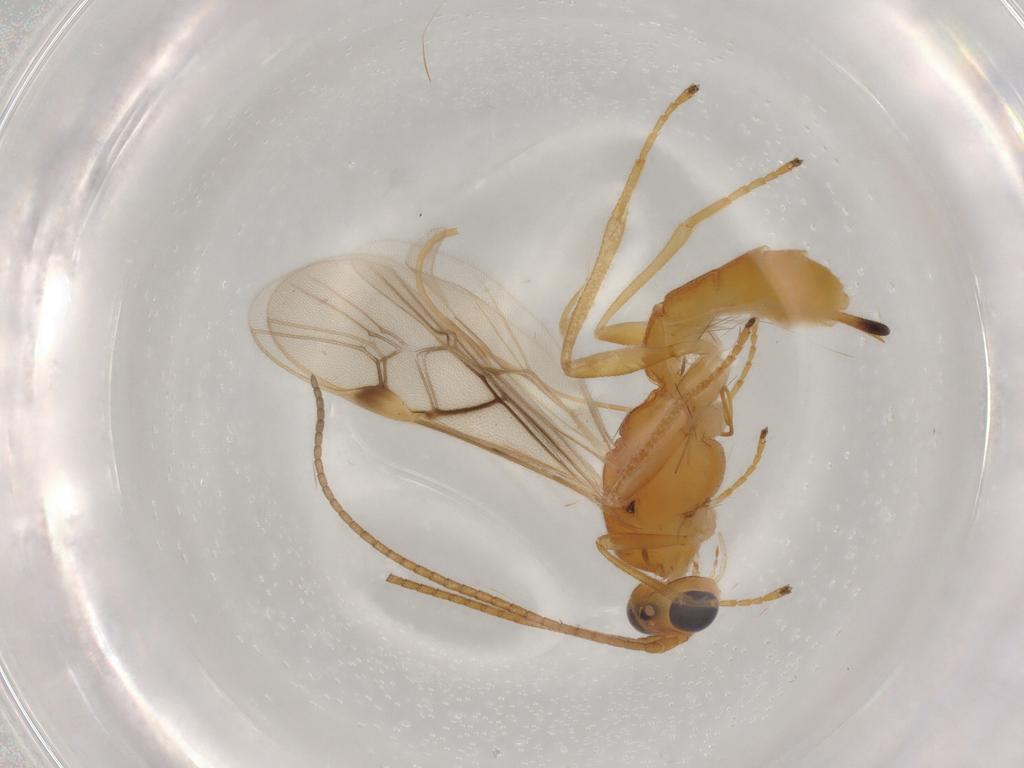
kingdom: Animalia
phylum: Arthropoda
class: Insecta
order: Hymenoptera
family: Braconidae
